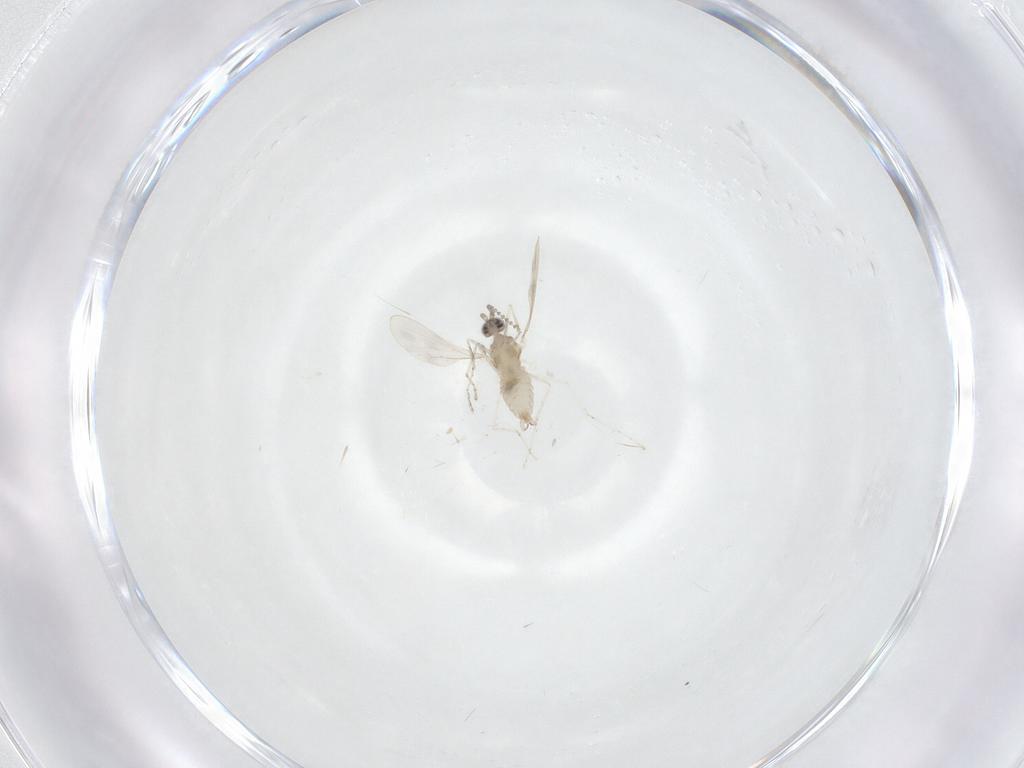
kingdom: Animalia
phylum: Arthropoda
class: Insecta
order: Diptera
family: Cecidomyiidae
